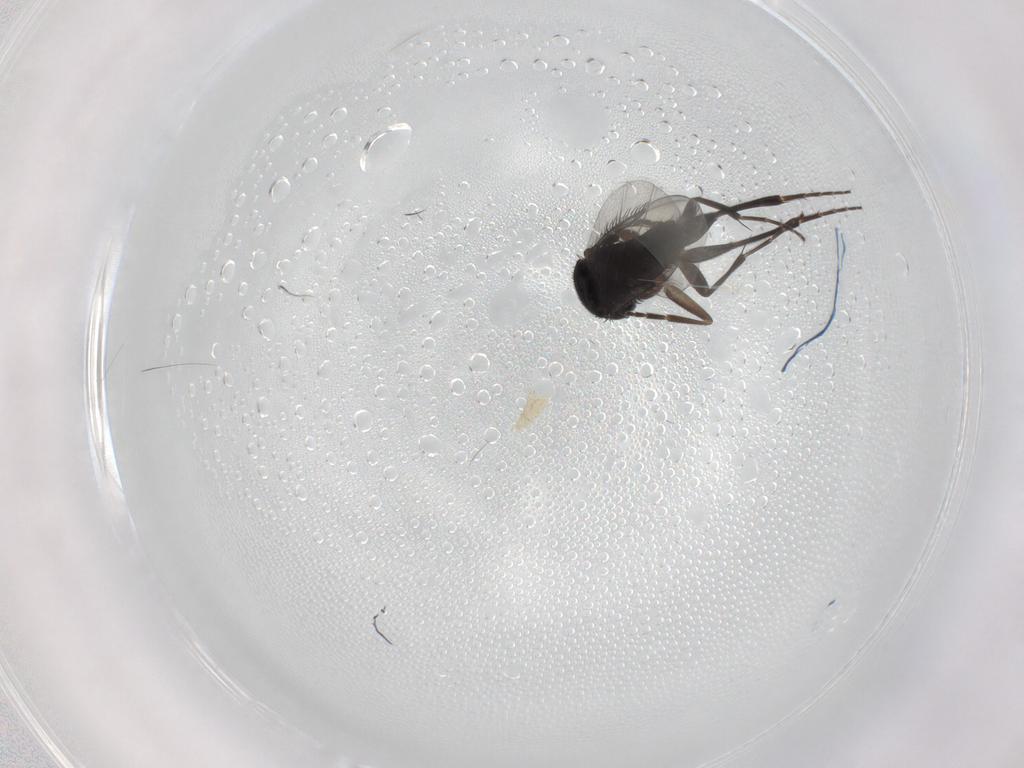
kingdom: Animalia
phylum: Arthropoda
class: Insecta
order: Diptera
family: Phoridae
